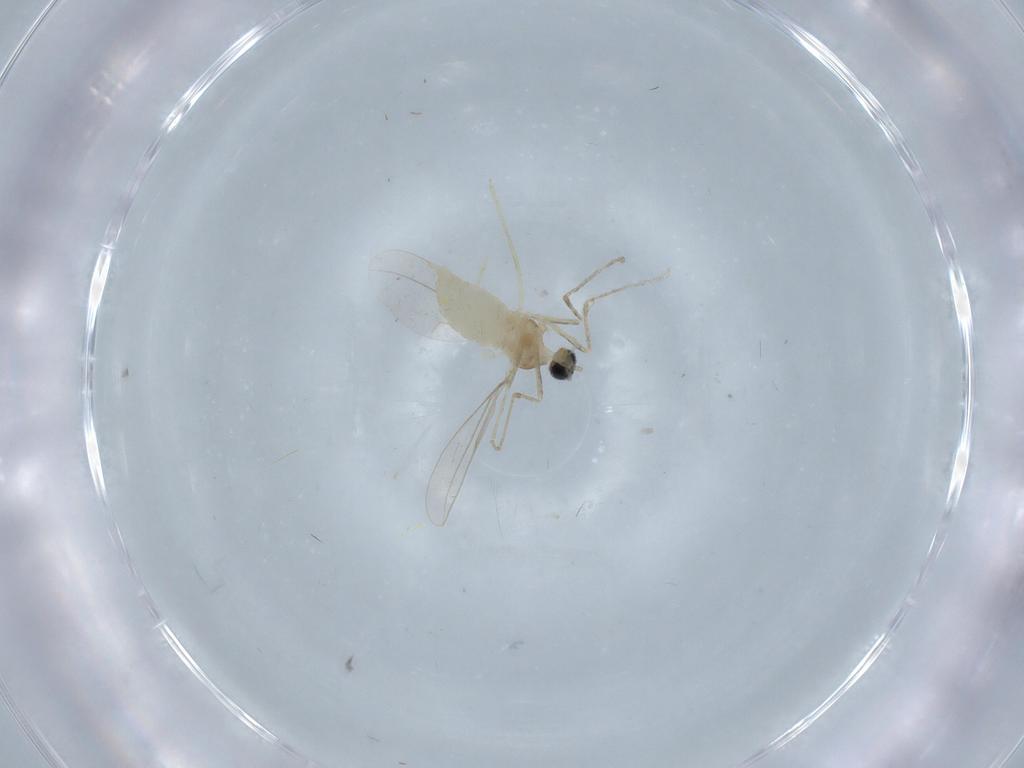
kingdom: Animalia
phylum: Arthropoda
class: Insecta
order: Diptera
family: Cecidomyiidae
